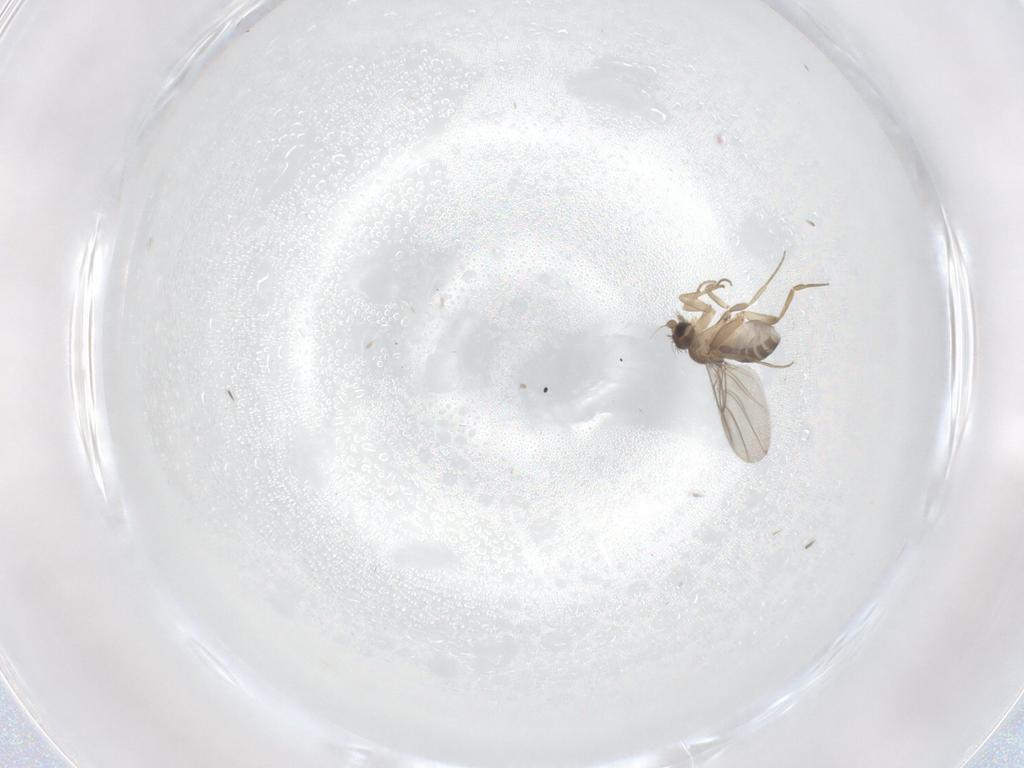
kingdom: Animalia
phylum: Arthropoda
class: Insecta
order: Diptera
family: Ceratopogonidae
